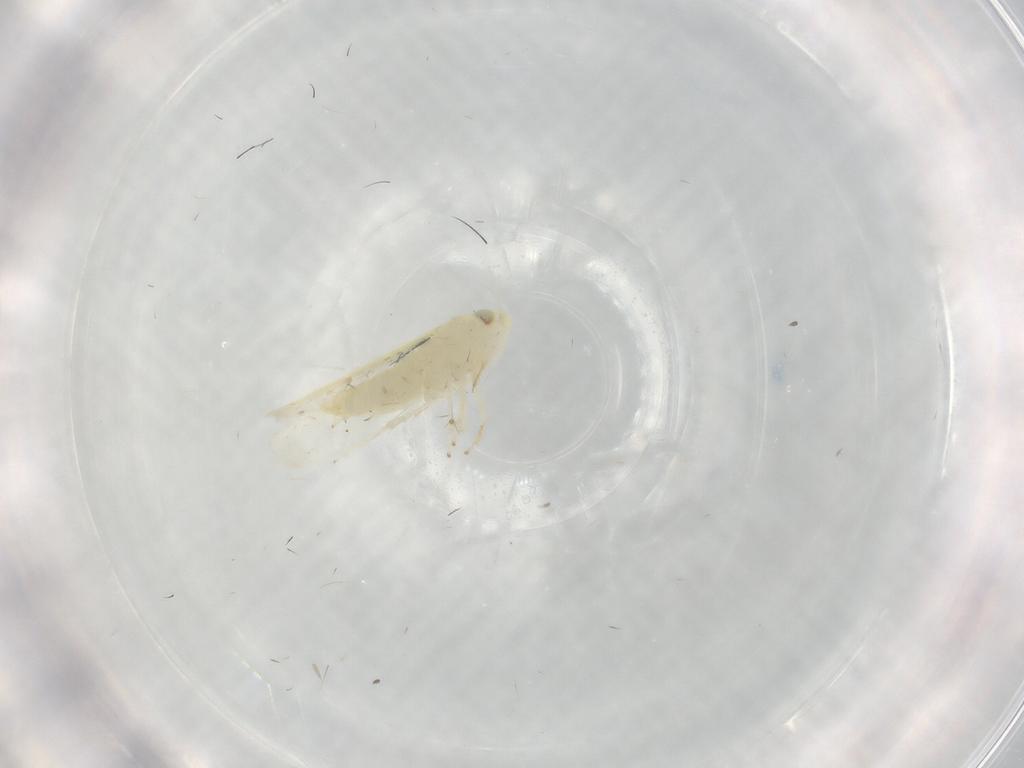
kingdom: Animalia
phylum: Arthropoda
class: Insecta
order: Hemiptera
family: Cicadellidae
